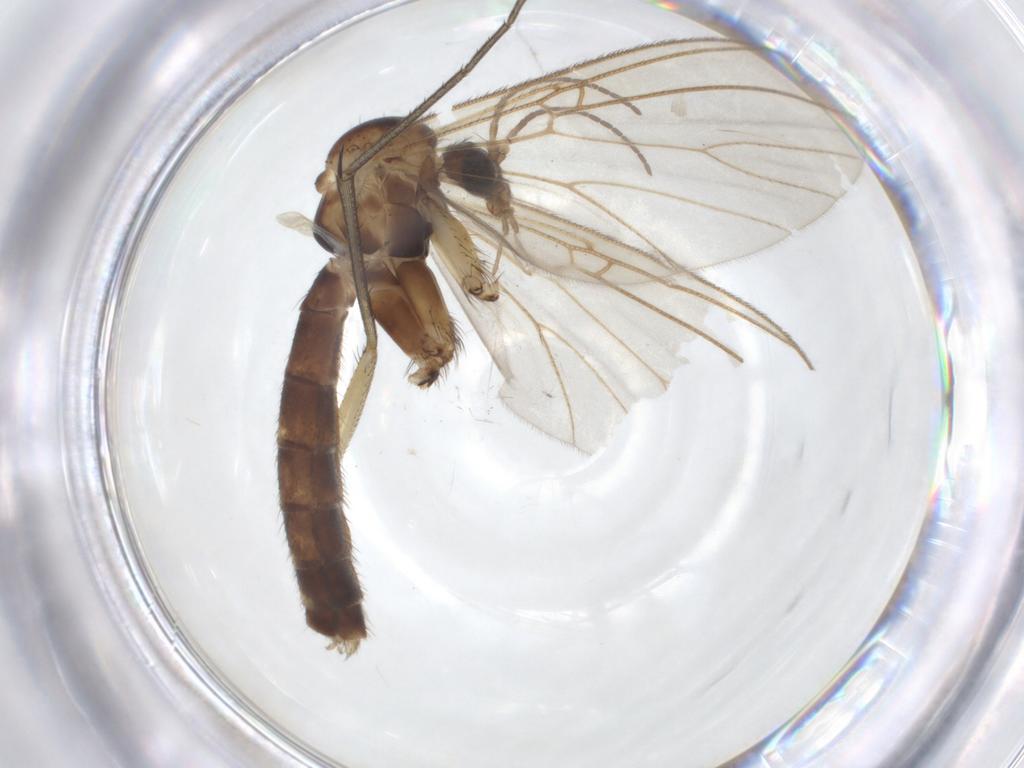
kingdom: Animalia
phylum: Arthropoda
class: Insecta
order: Diptera
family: Mycetophilidae
